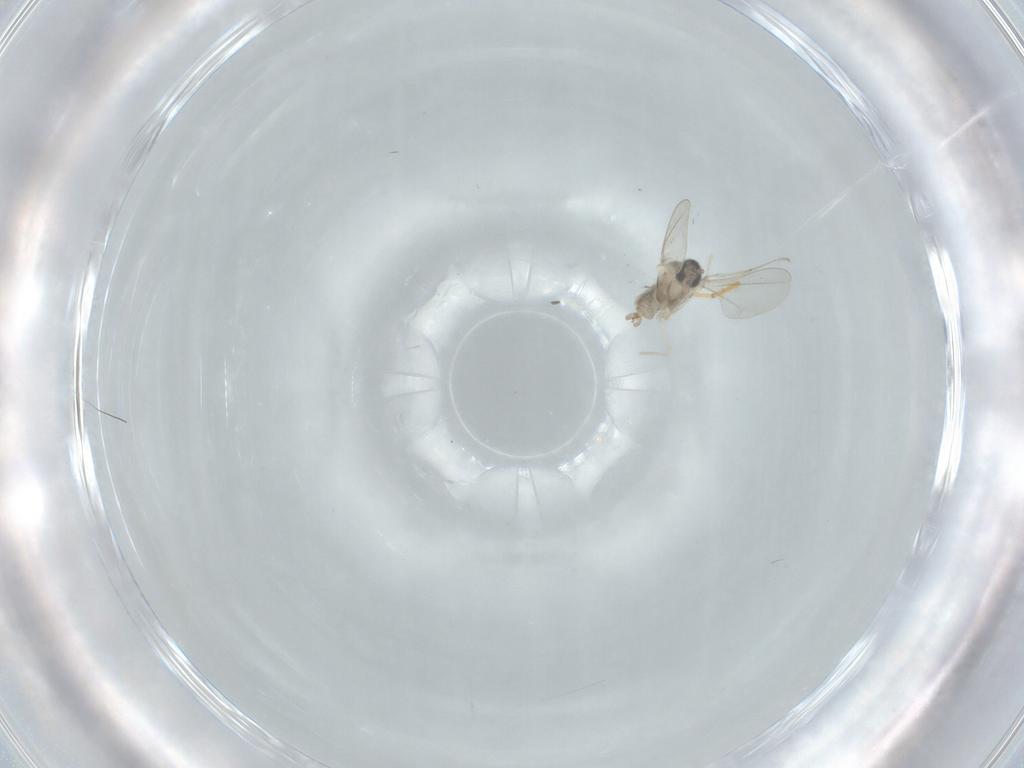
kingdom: Animalia
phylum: Arthropoda
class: Insecta
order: Diptera
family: Cecidomyiidae
